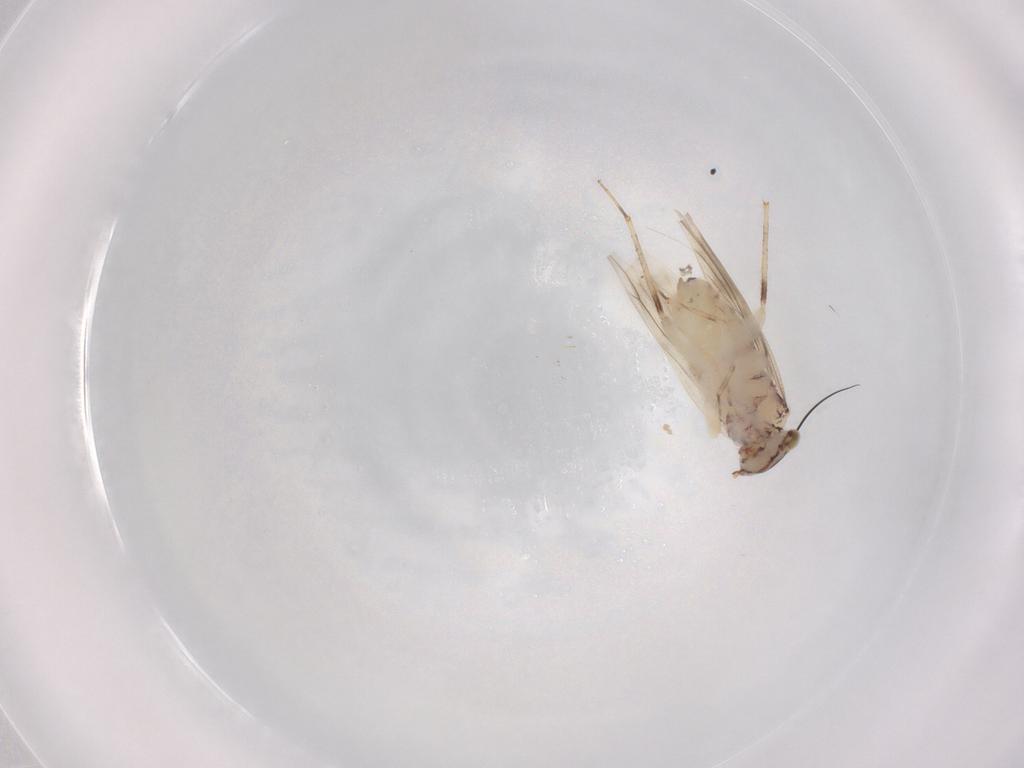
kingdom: Animalia
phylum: Arthropoda
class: Insecta
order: Psocodea
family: Lepidopsocidae
